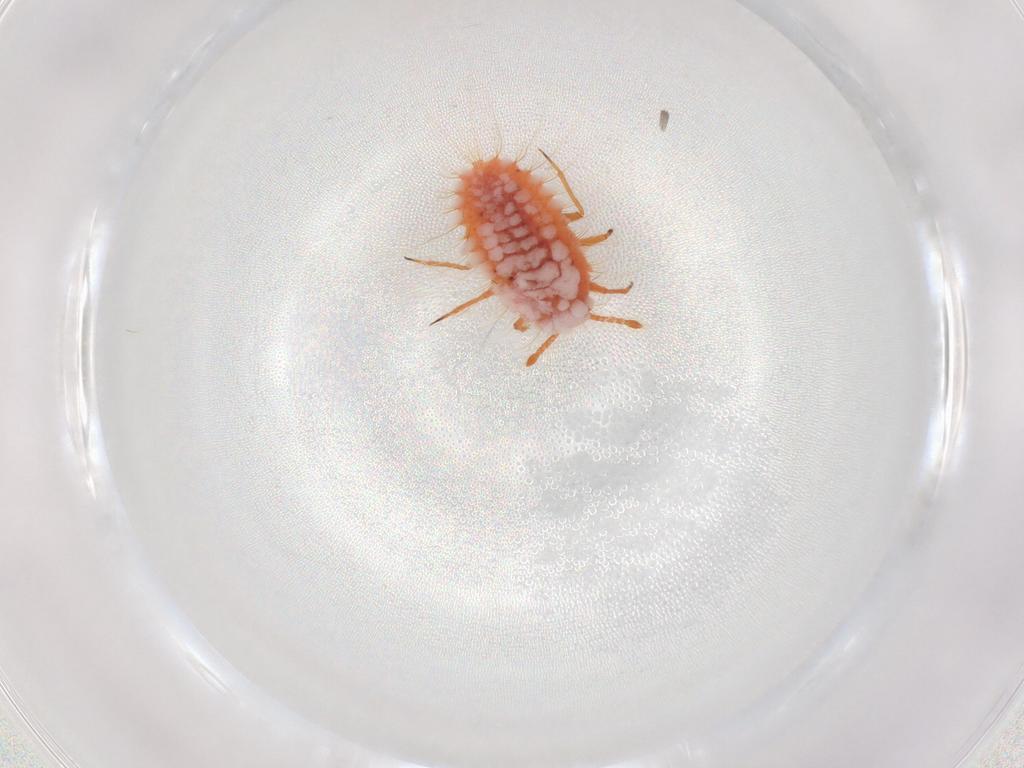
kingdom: Animalia
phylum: Arthropoda
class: Insecta
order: Hemiptera
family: Coccoidea_incertae_sedis
